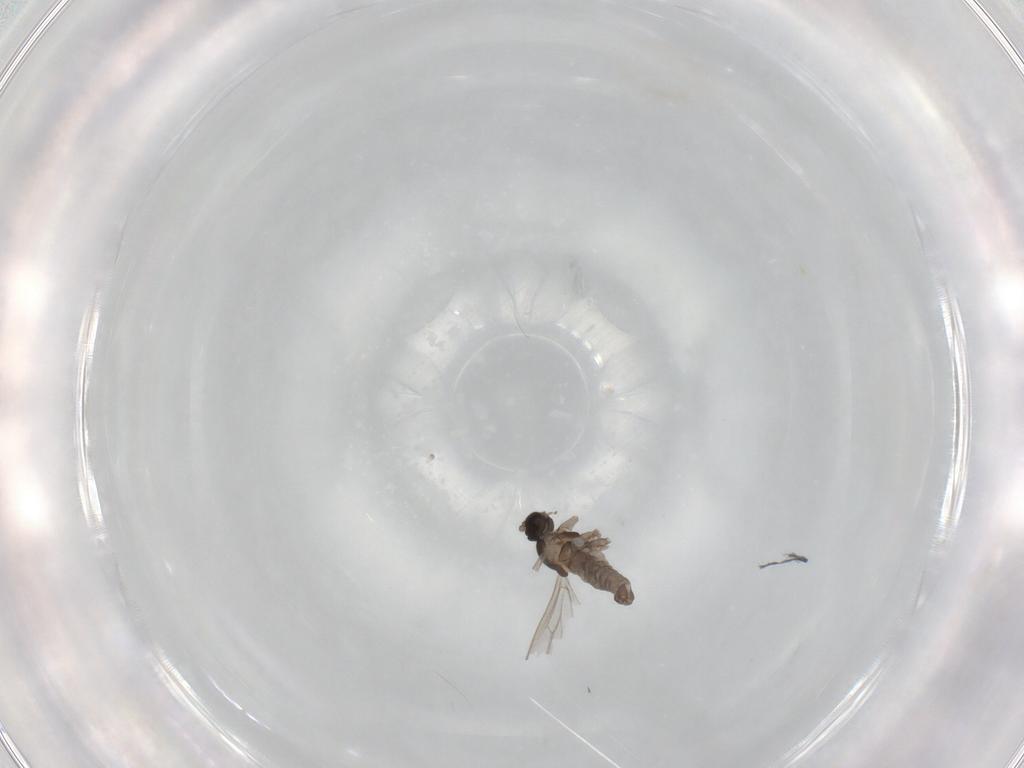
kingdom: Animalia
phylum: Arthropoda
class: Insecta
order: Diptera
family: Cecidomyiidae
